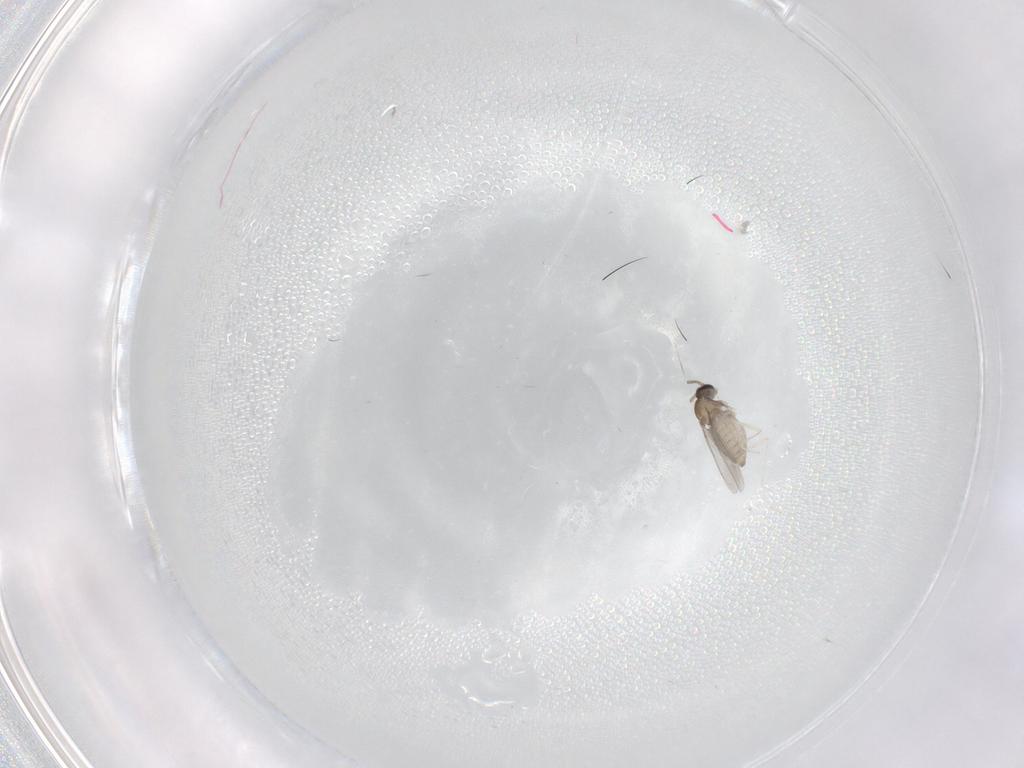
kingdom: Animalia
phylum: Arthropoda
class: Insecta
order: Diptera
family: Cecidomyiidae
